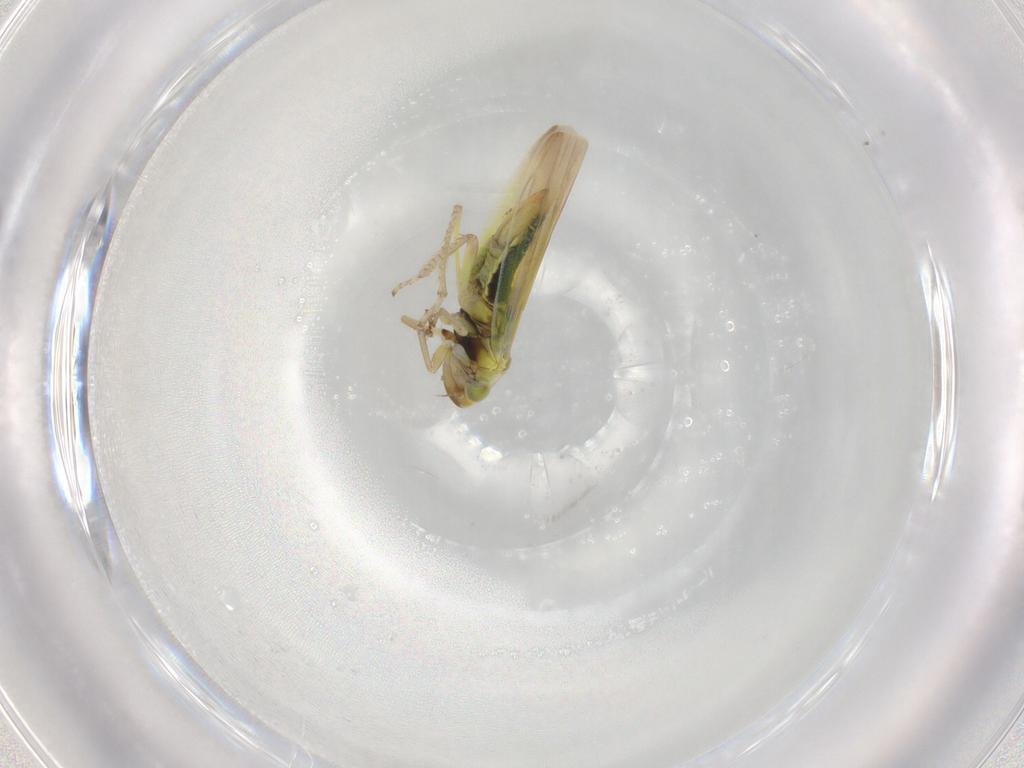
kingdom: Animalia
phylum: Arthropoda
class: Insecta
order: Hemiptera
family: Cicadellidae
